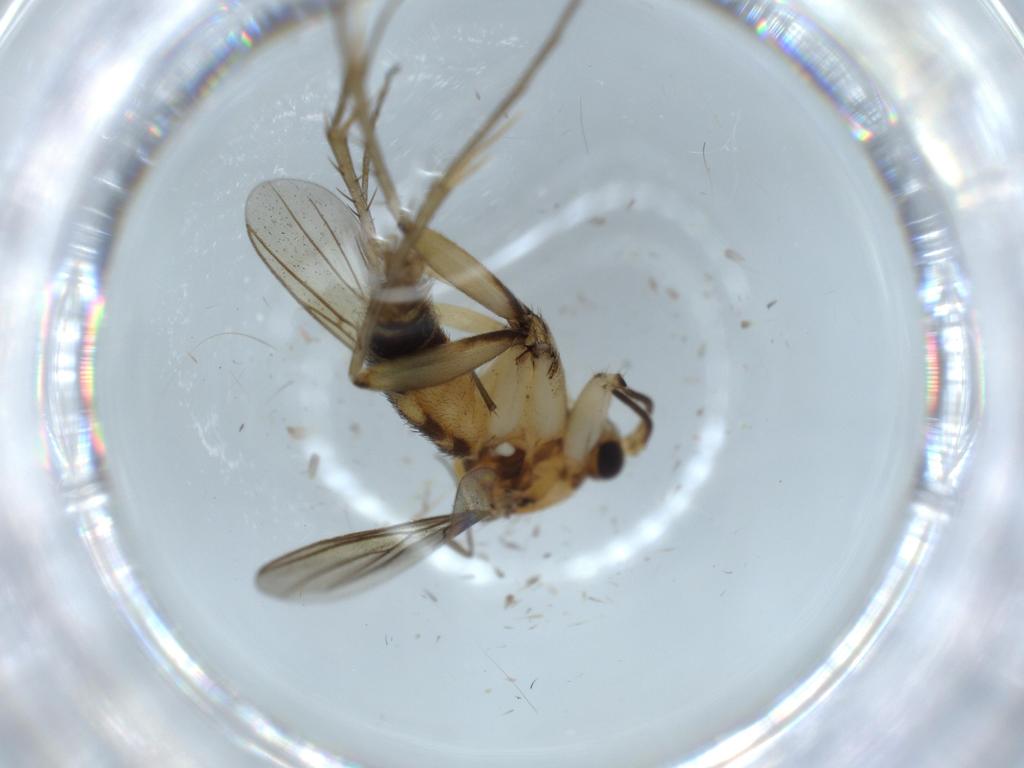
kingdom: Animalia
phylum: Arthropoda
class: Insecta
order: Diptera
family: Mycetophilidae
